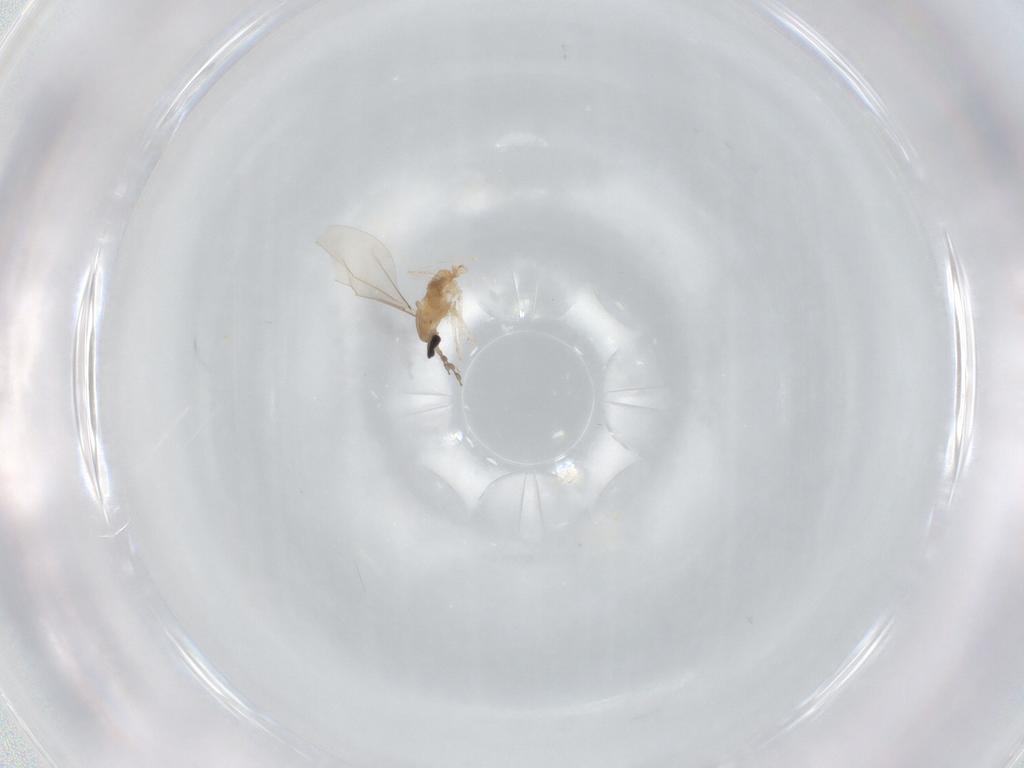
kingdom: Animalia
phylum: Arthropoda
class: Insecta
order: Diptera
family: Cecidomyiidae
